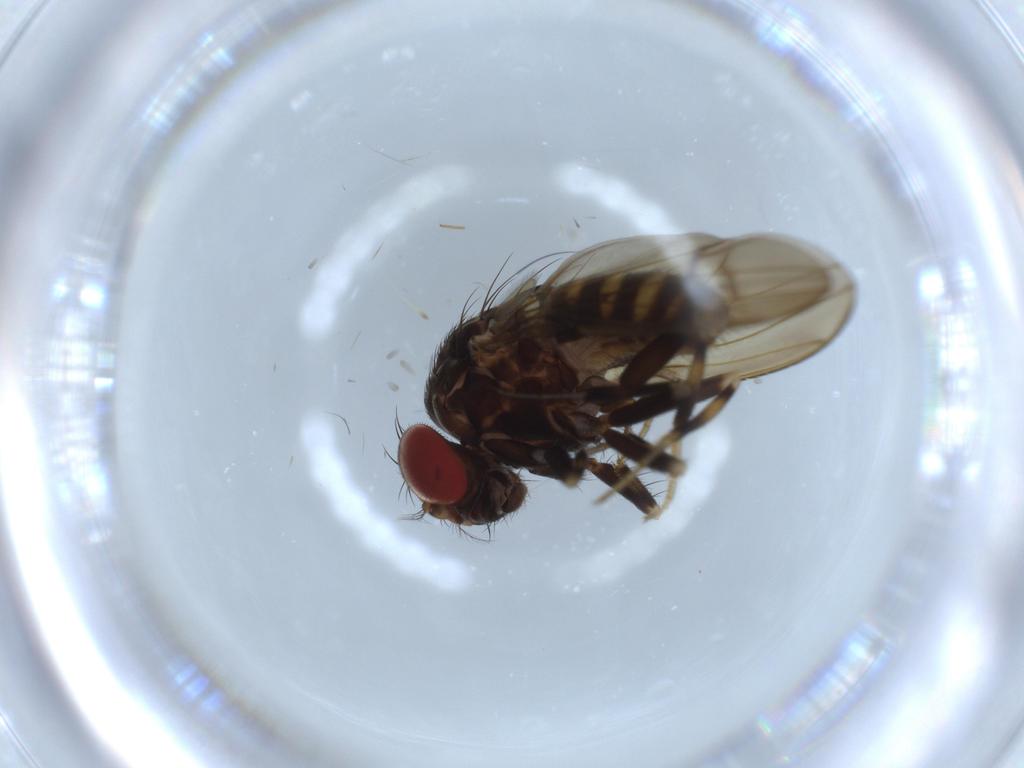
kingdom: Animalia
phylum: Arthropoda
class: Insecta
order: Diptera
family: Drosophilidae
